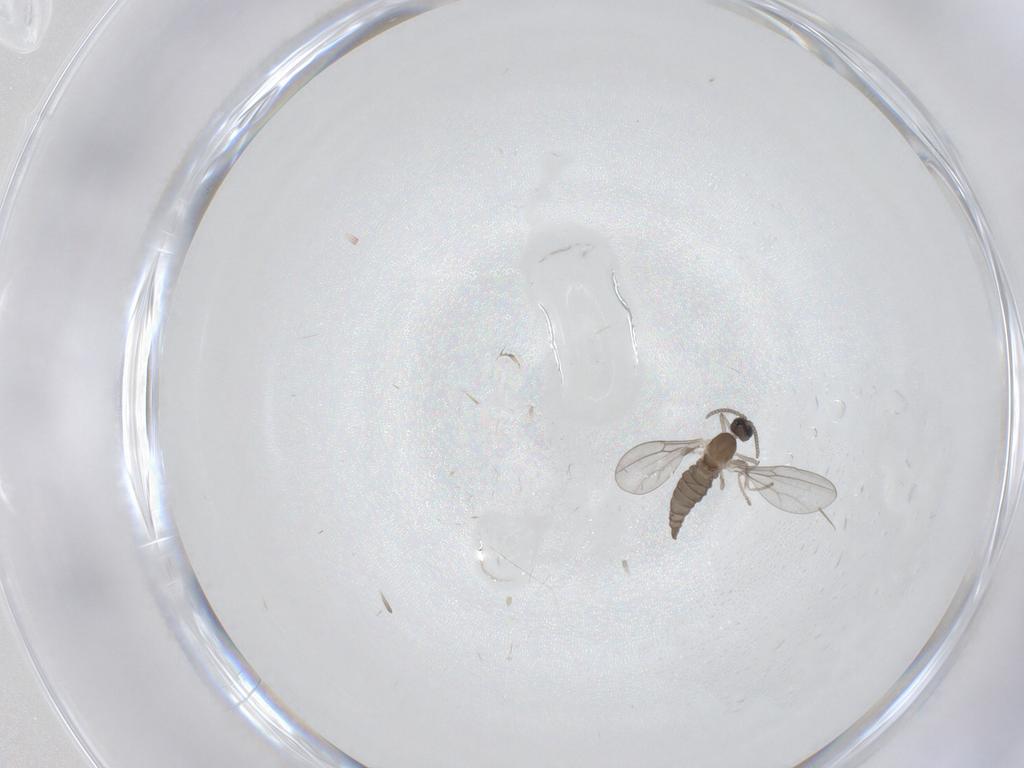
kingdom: Animalia
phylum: Arthropoda
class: Insecta
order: Diptera
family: Cecidomyiidae
